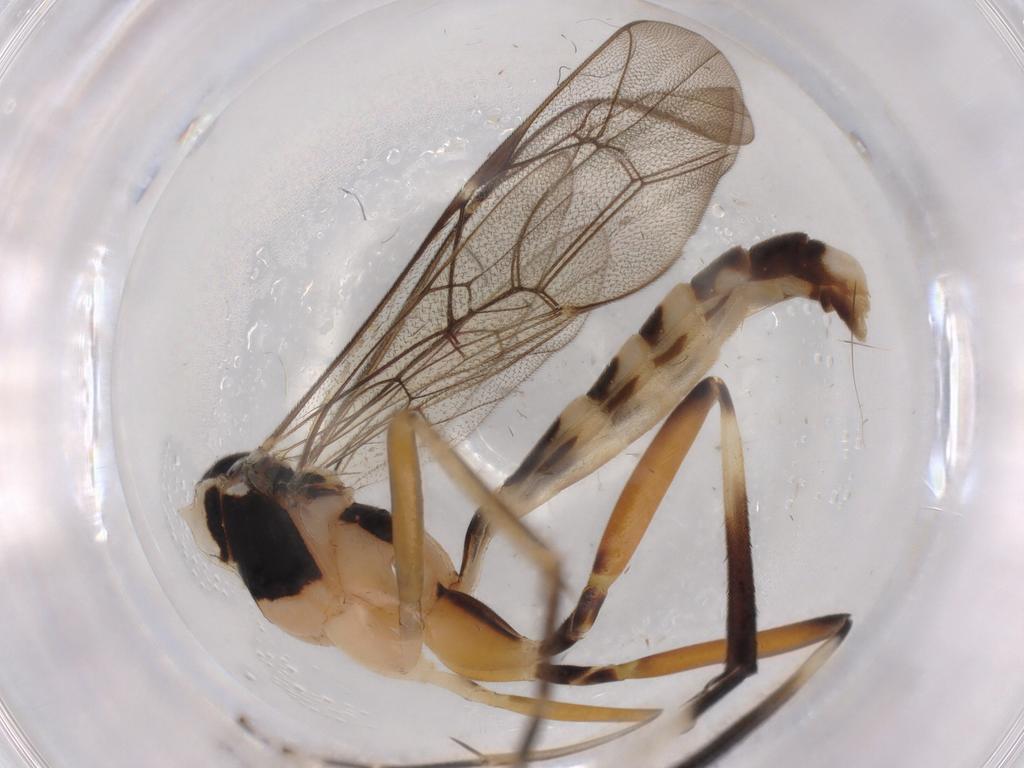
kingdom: Animalia
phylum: Arthropoda
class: Insecta
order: Hymenoptera
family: Ichneumonidae
